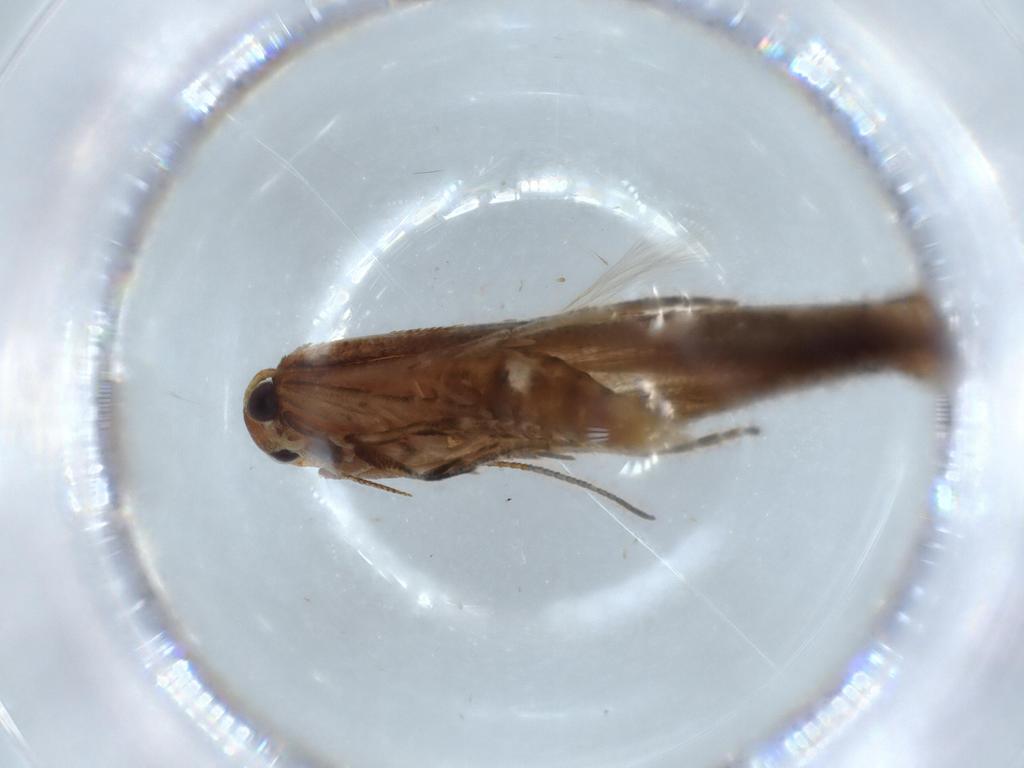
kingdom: Animalia
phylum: Arthropoda
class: Insecta
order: Lepidoptera
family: Stathmopodidae
